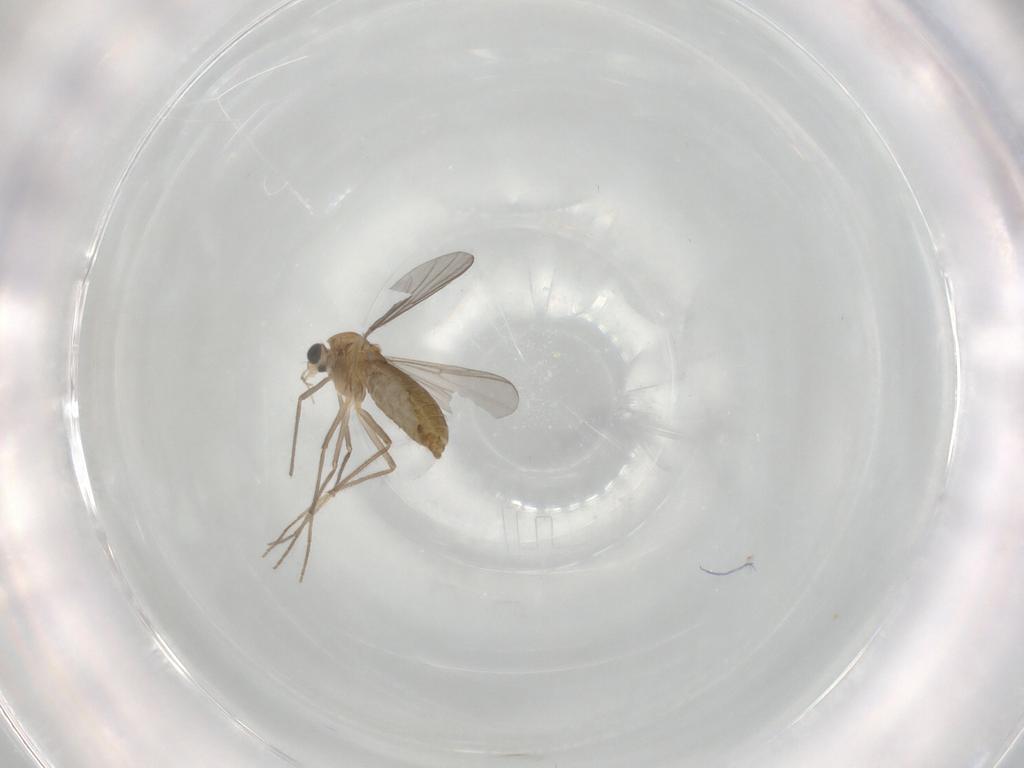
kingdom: Animalia
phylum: Arthropoda
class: Insecta
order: Diptera
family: Chironomidae
